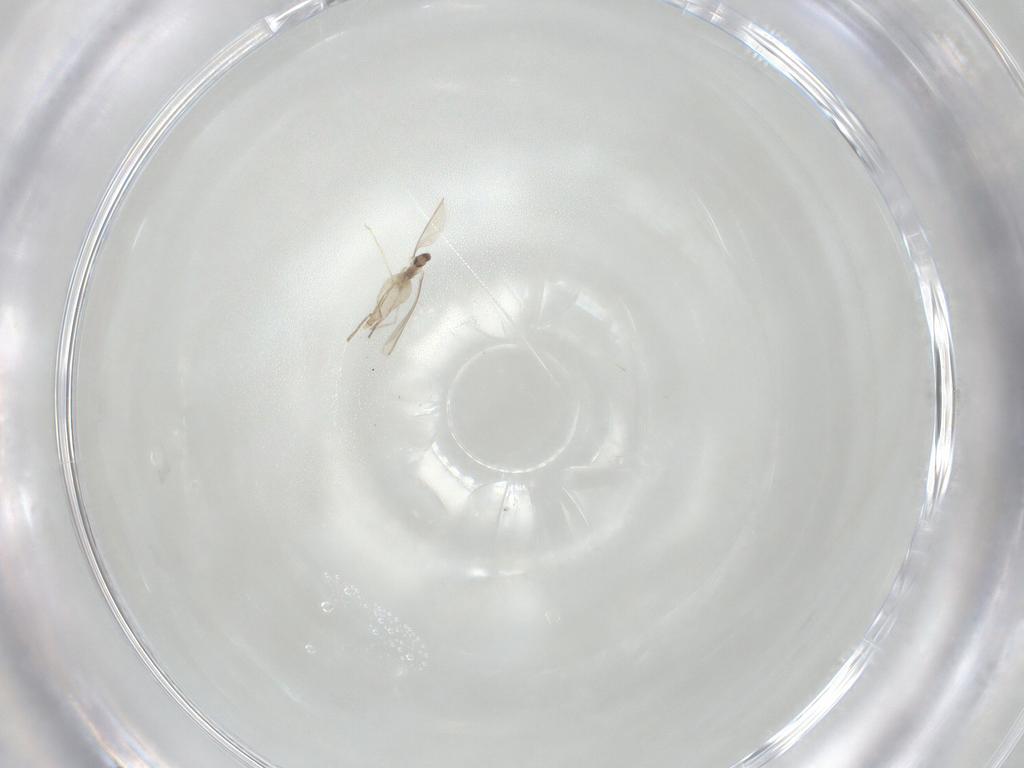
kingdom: Animalia
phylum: Arthropoda
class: Insecta
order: Diptera
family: Cecidomyiidae
